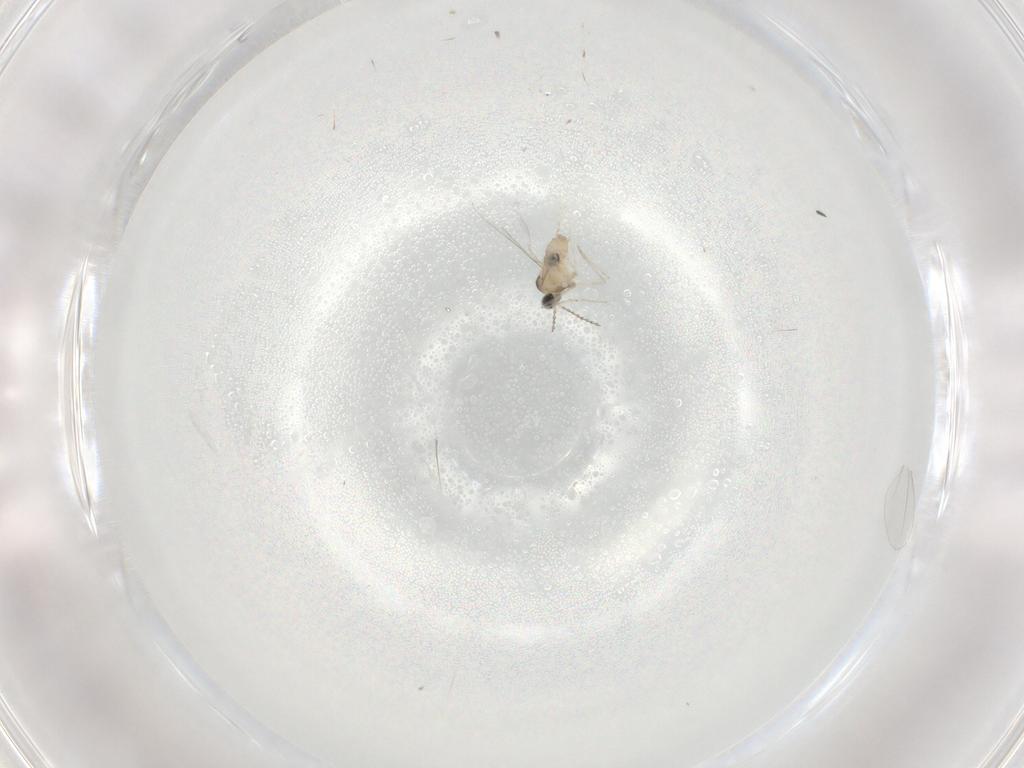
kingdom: Animalia
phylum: Arthropoda
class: Insecta
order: Diptera
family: Cecidomyiidae
